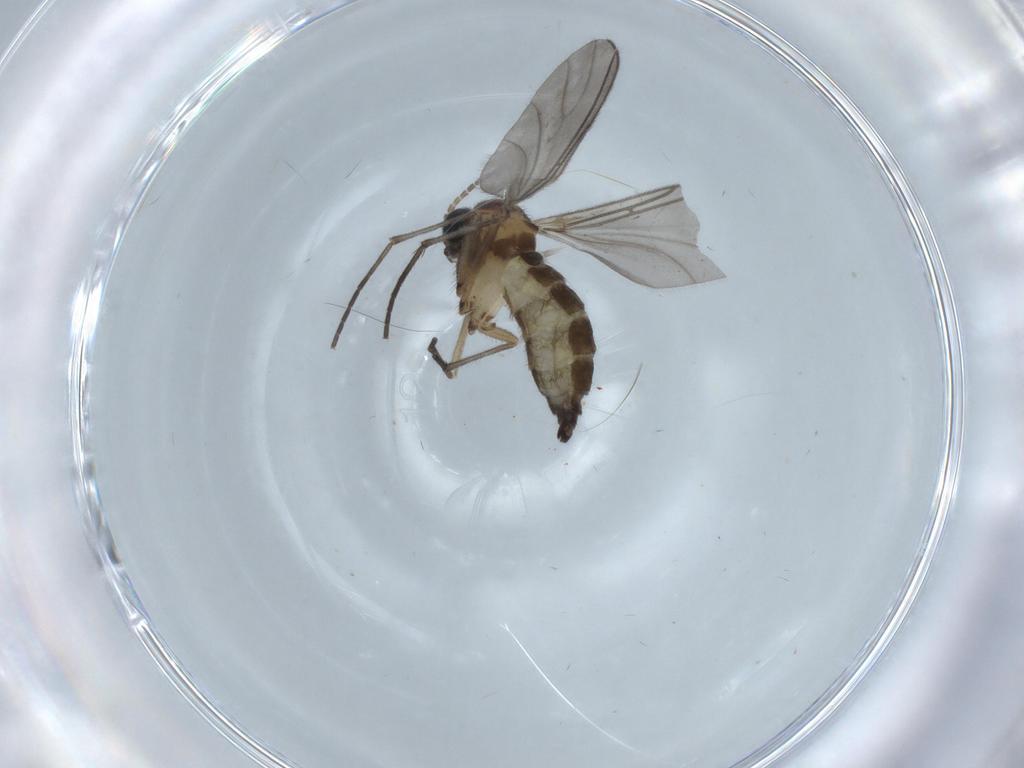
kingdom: Animalia
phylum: Arthropoda
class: Insecta
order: Diptera
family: Sciaridae
